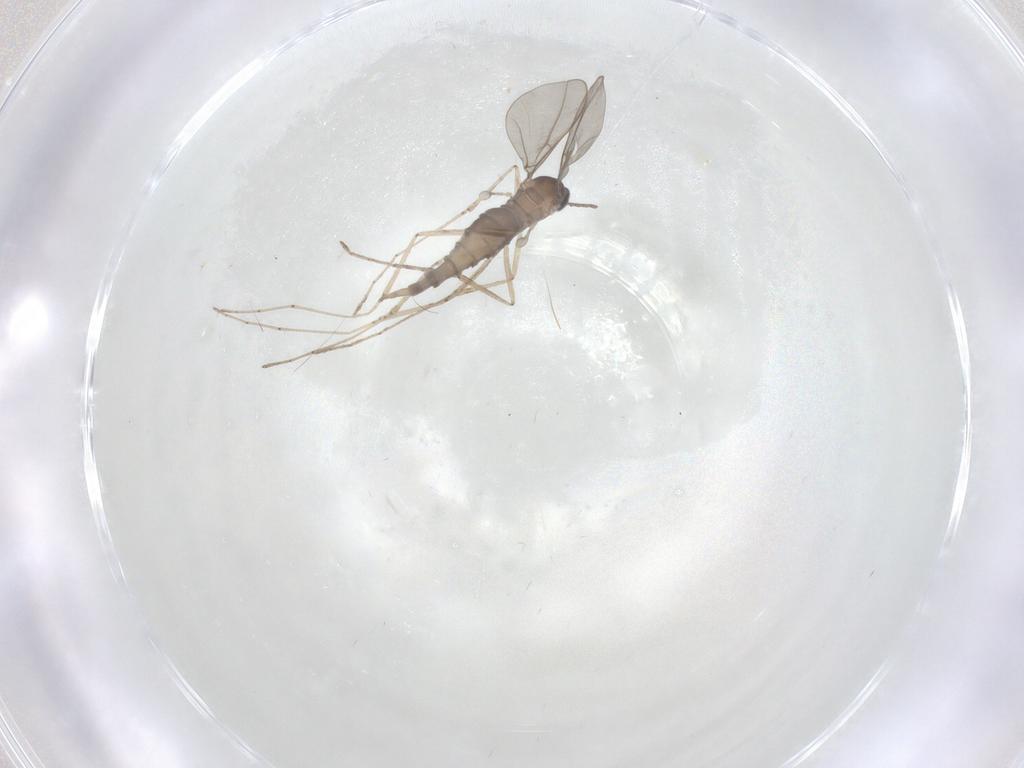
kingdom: Animalia
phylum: Arthropoda
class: Insecta
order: Diptera
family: Cecidomyiidae
